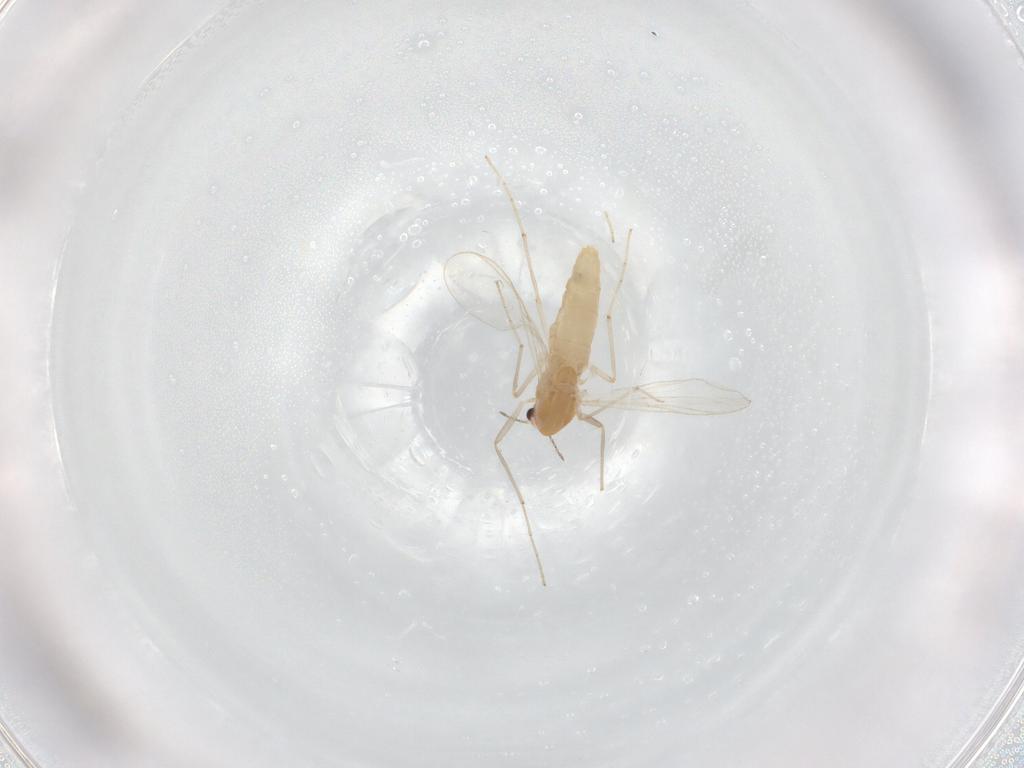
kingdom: Animalia
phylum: Arthropoda
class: Insecta
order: Diptera
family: Chironomidae
